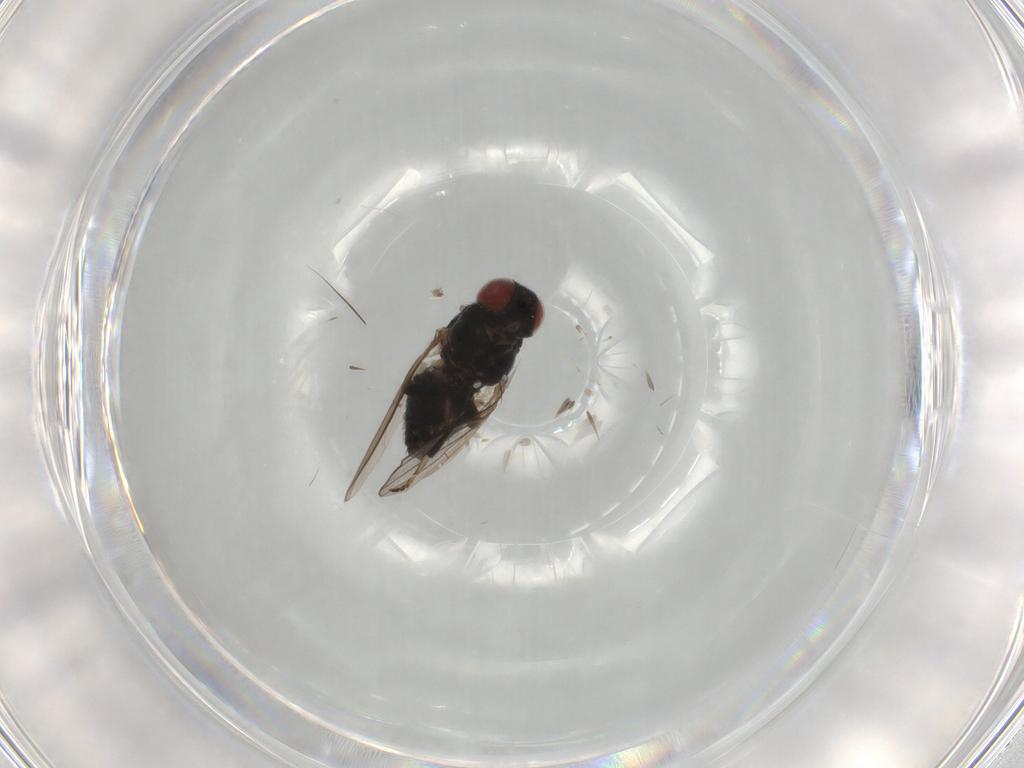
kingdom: Animalia
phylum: Arthropoda
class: Insecta
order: Diptera
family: Chamaemyiidae
